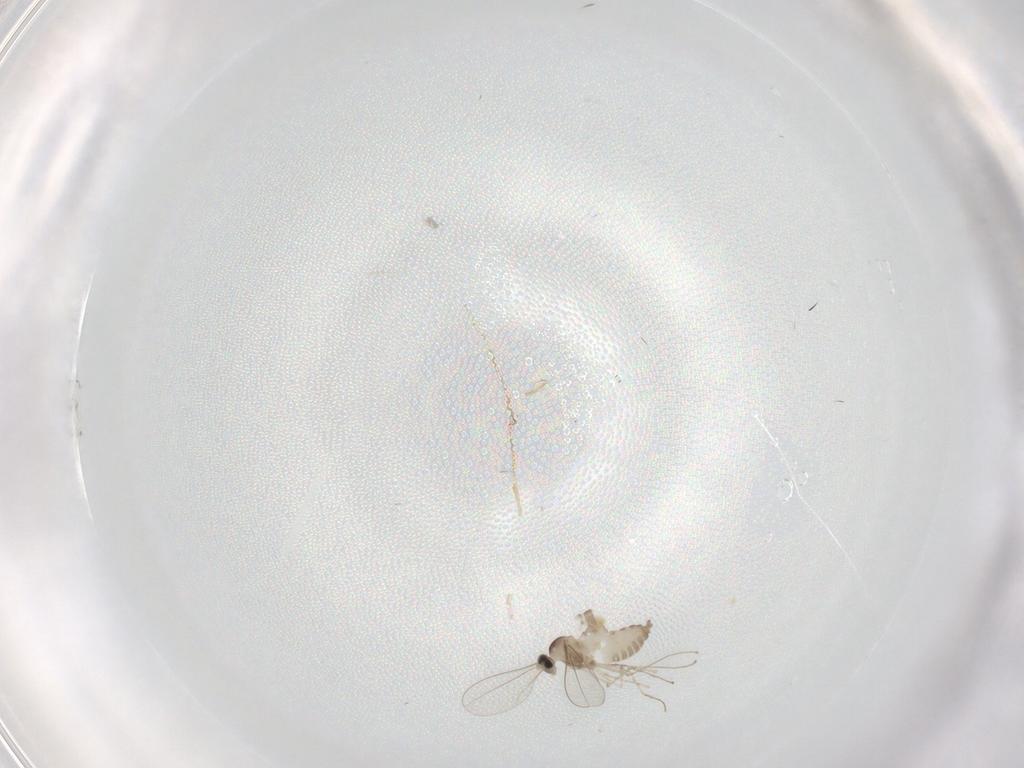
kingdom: Animalia
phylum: Arthropoda
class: Insecta
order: Diptera
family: Cecidomyiidae
